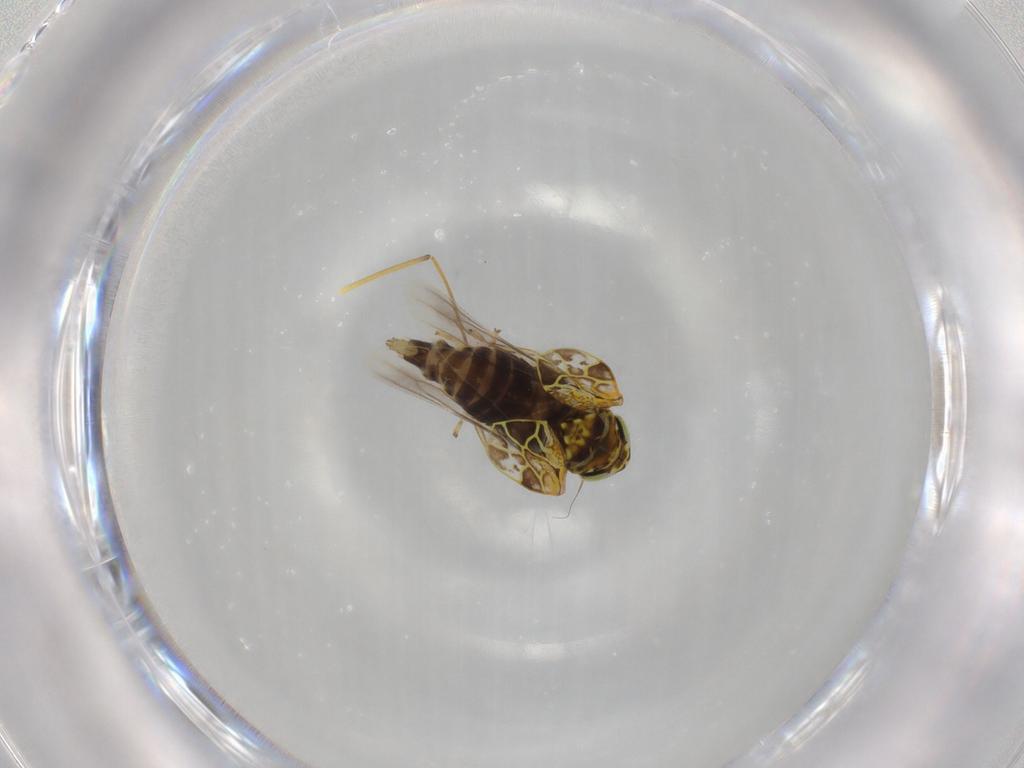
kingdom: Animalia
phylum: Arthropoda
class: Insecta
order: Hemiptera
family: Cicadellidae
